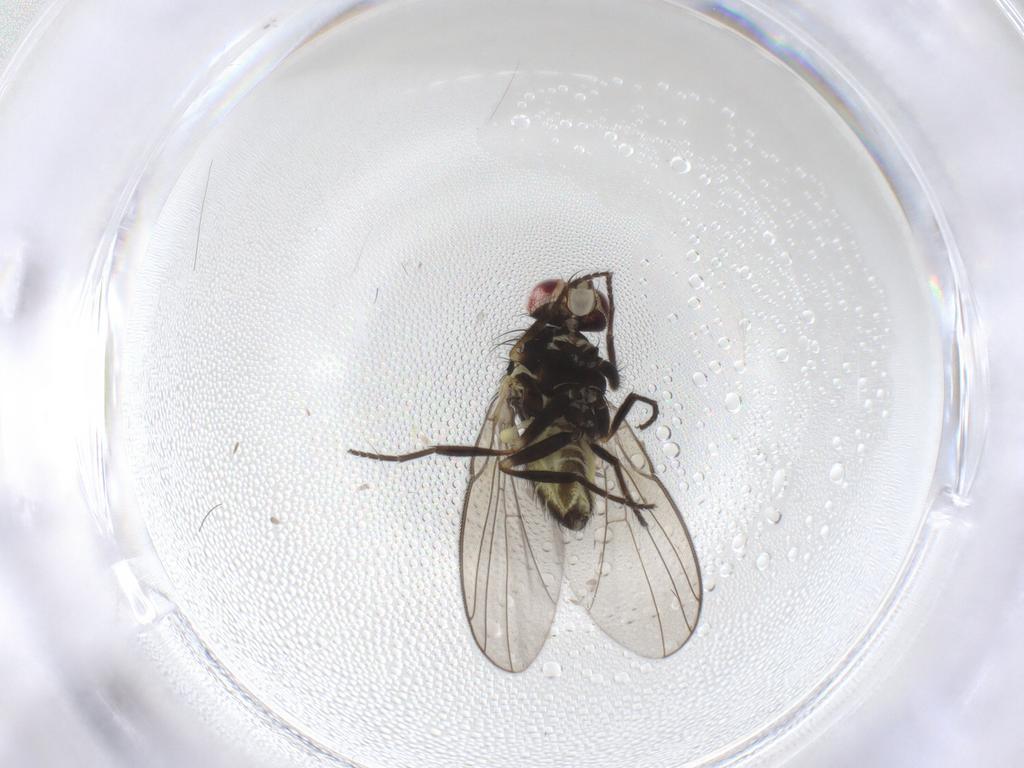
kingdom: Animalia
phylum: Arthropoda
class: Insecta
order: Diptera
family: Agromyzidae
